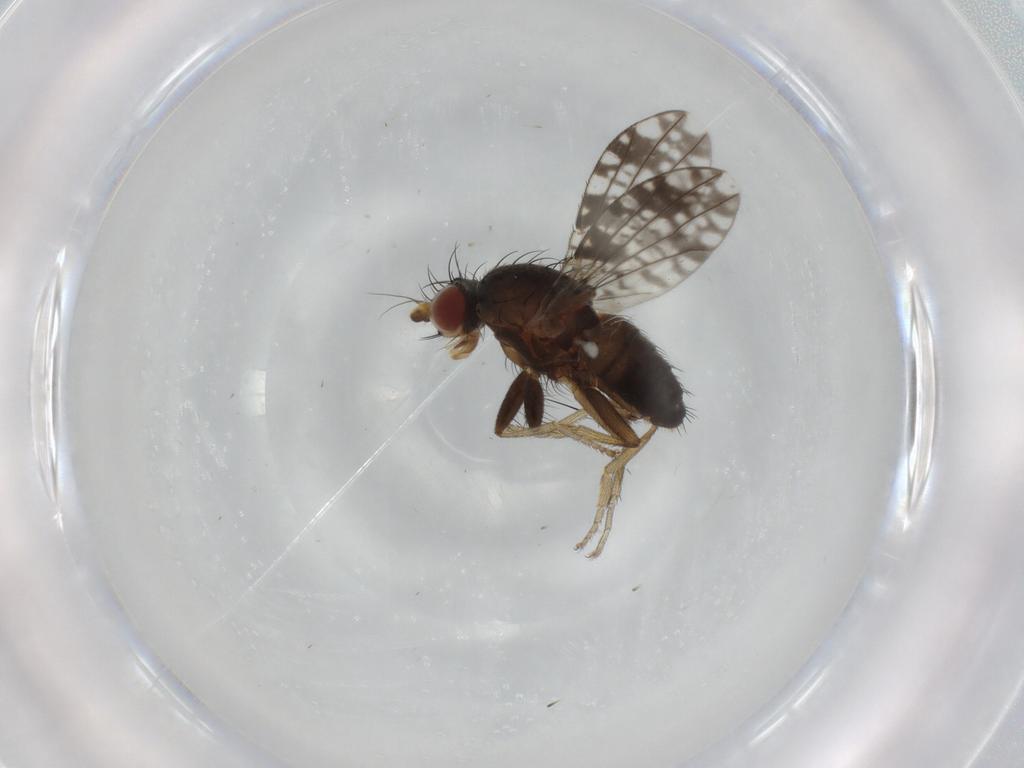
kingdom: Animalia
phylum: Arthropoda
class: Insecta
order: Diptera
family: Tephritidae
